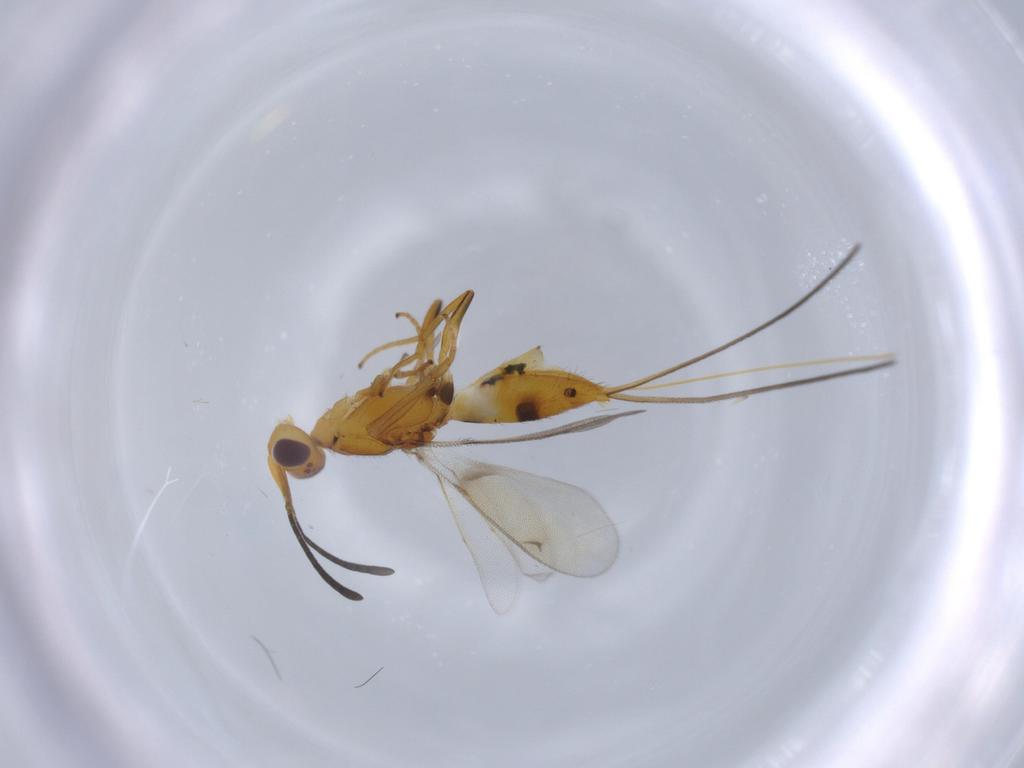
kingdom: Animalia
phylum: Arthropoda
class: Insecta
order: Hymenoptera
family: Eupelmidae
